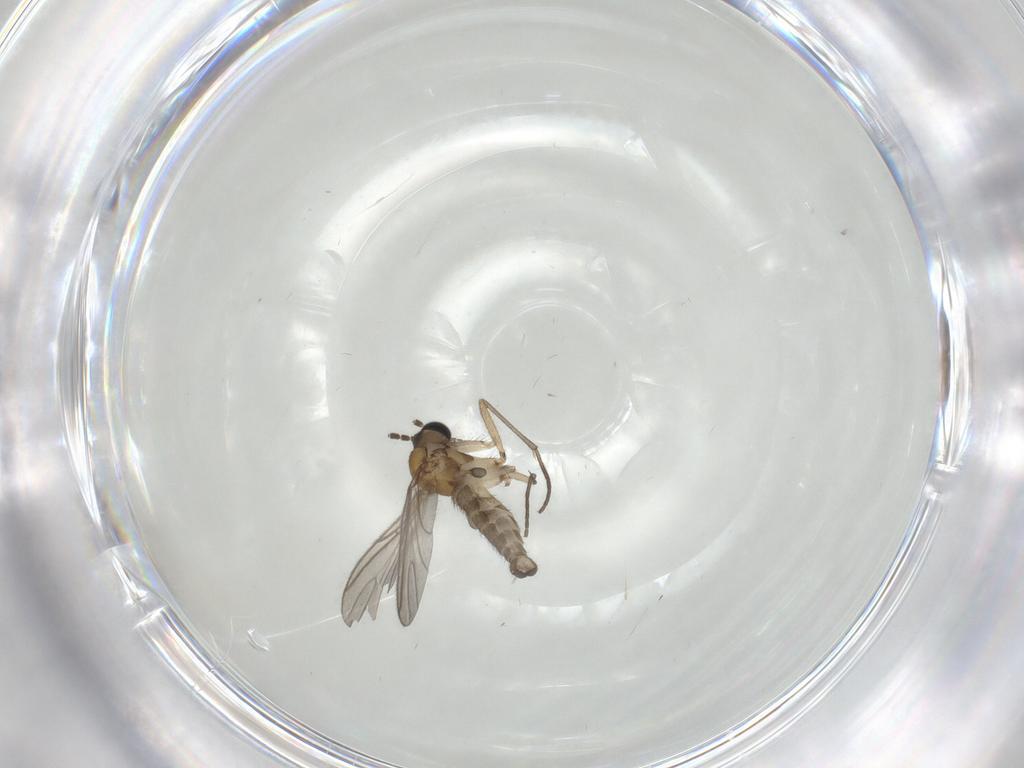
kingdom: Animalia
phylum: Arthropoda
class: Insecta
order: Diptera
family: Sciaridae
